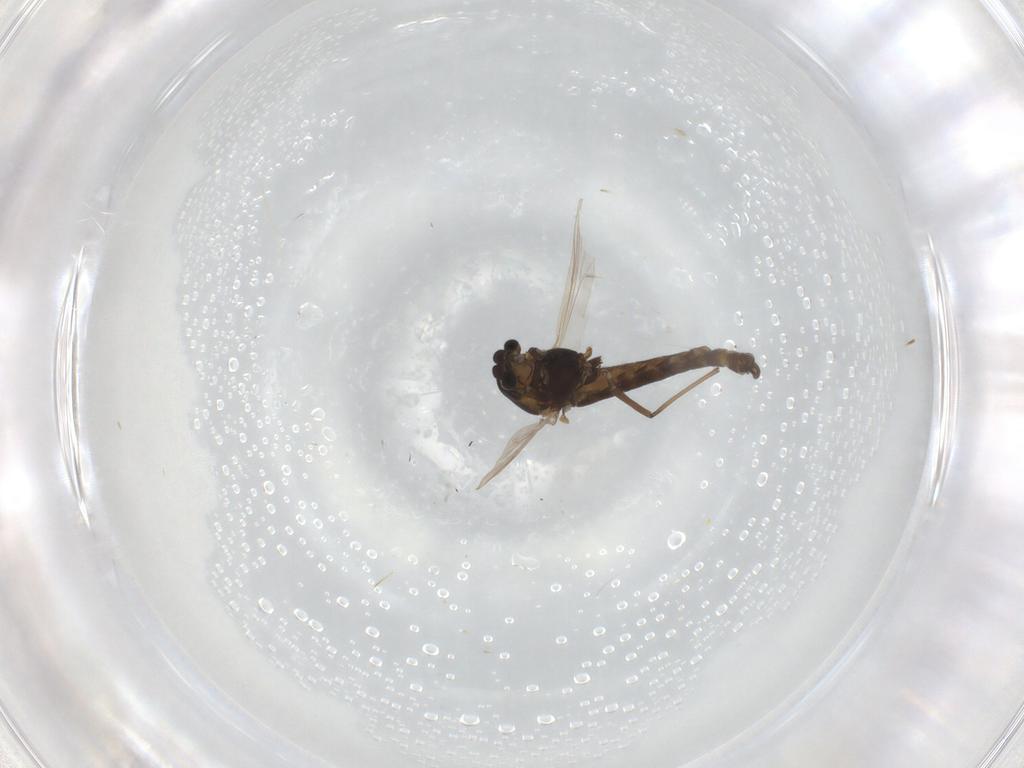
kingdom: Animalia
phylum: Arthropoda
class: Insecta
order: Diptera
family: Chironomidae
